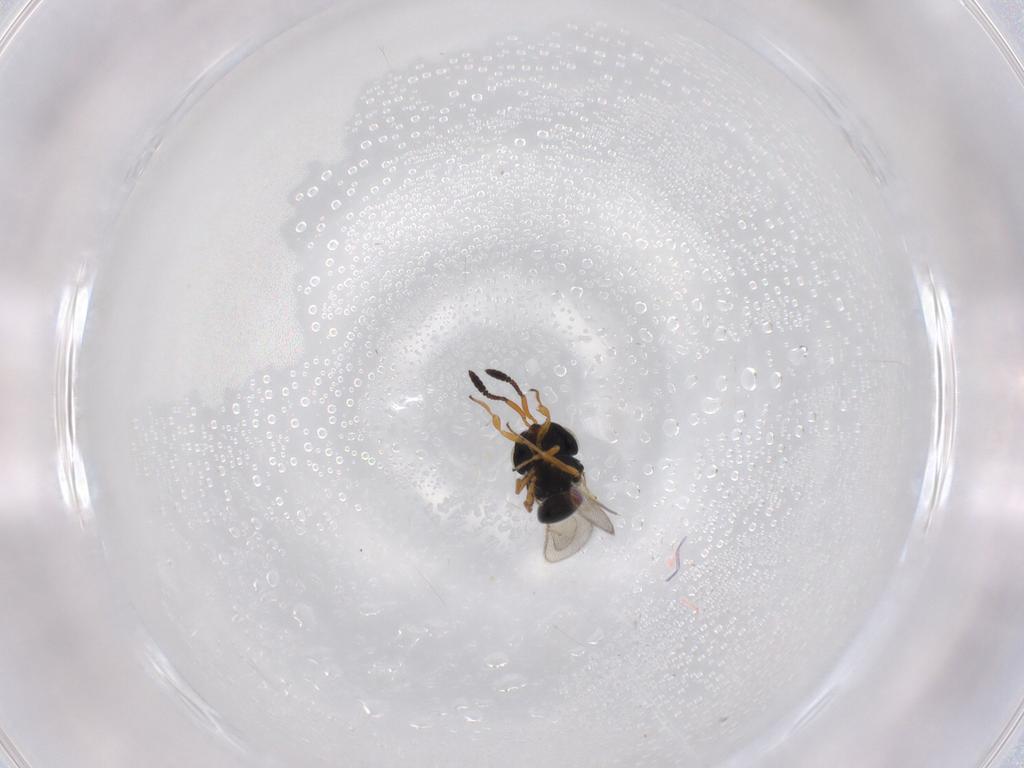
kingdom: Animalia
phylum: Arthropoda
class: Insecta
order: Hymenoptera
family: Scelionidae
